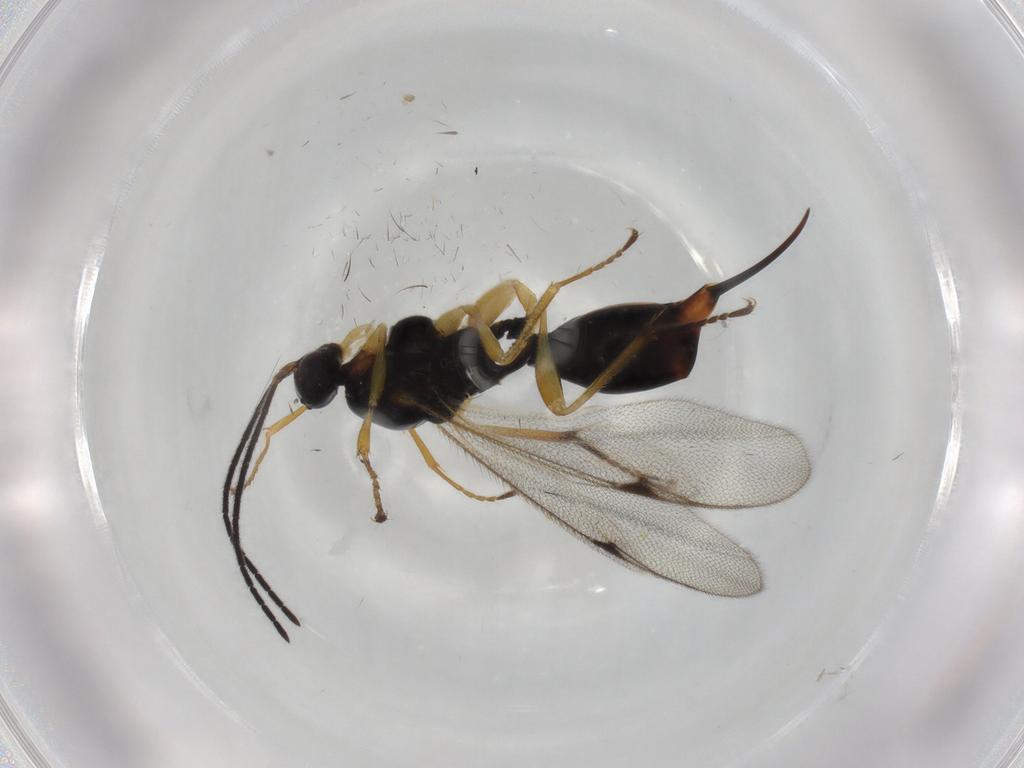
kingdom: Animalia
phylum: Arthropoda
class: Insecta
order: Hymenoptera
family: Proctotrupidae
